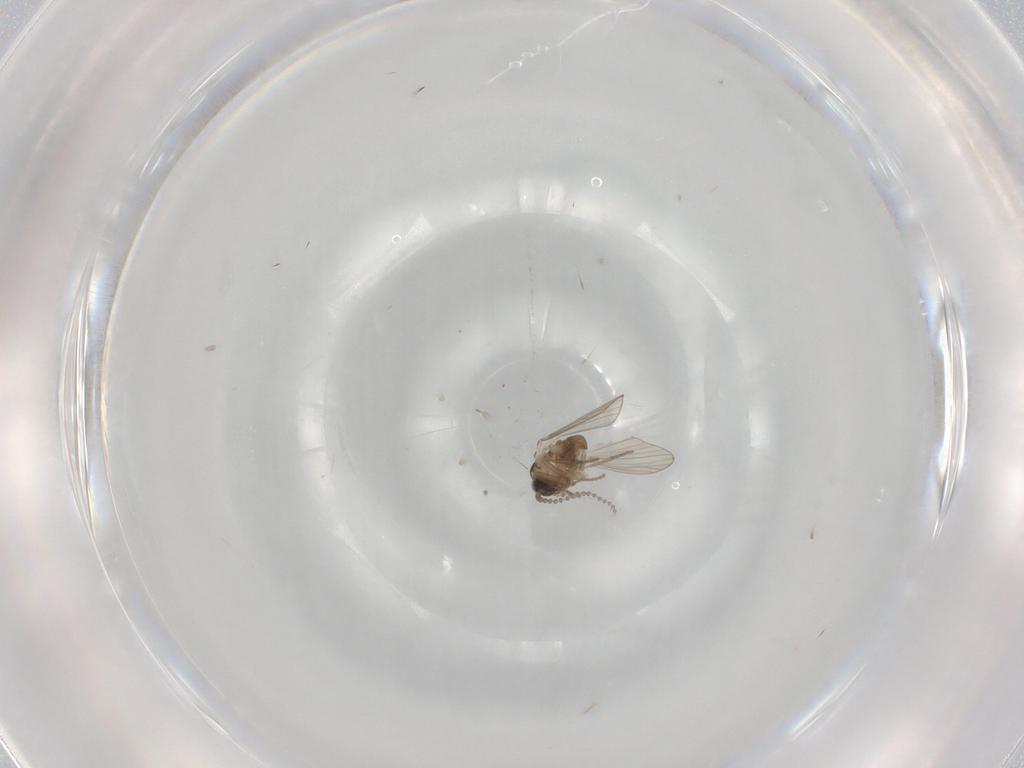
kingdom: Animalia
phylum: Arthropoda
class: Insecta
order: Diptera
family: Psychodidae
